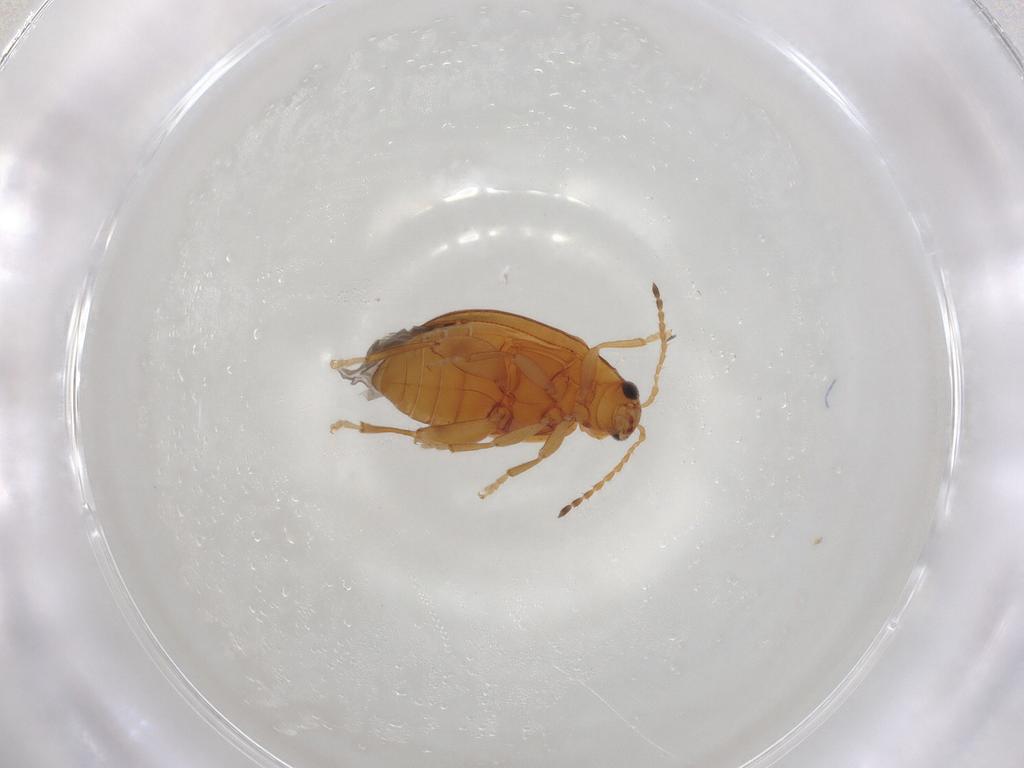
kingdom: Animalia
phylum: Arthropoda
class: Insecta
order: Coleoptera
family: Chrysomelidae
